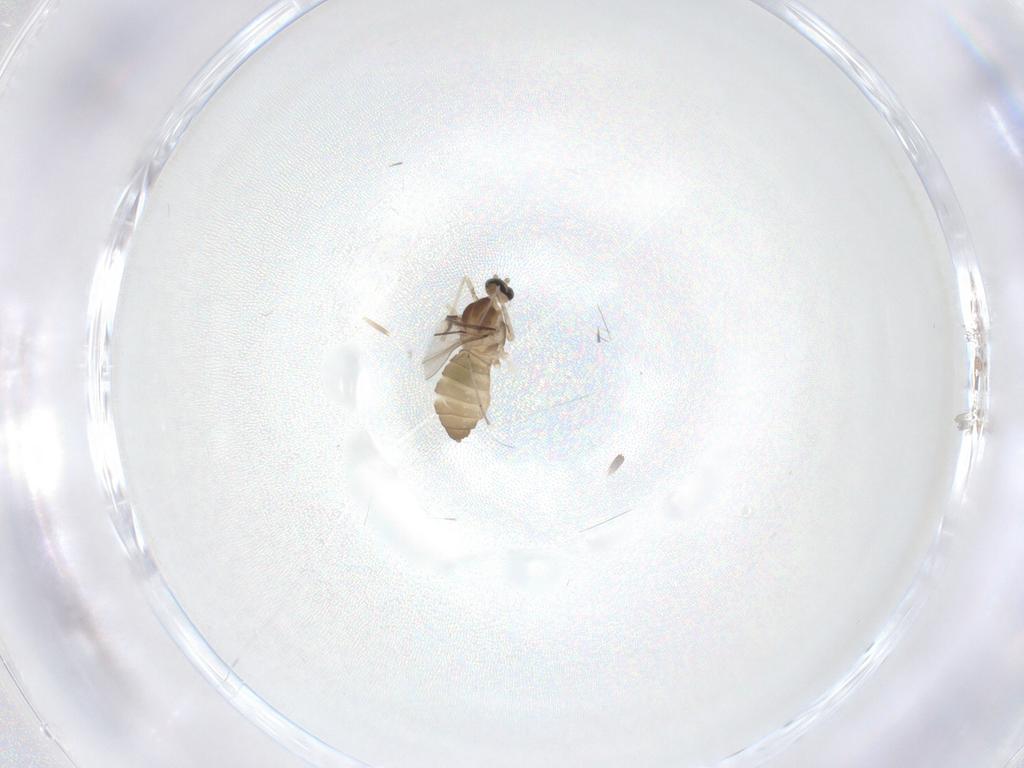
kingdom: Animalia
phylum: Arthropoda
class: Insecta
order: Diptera
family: Cecidomyiidae
